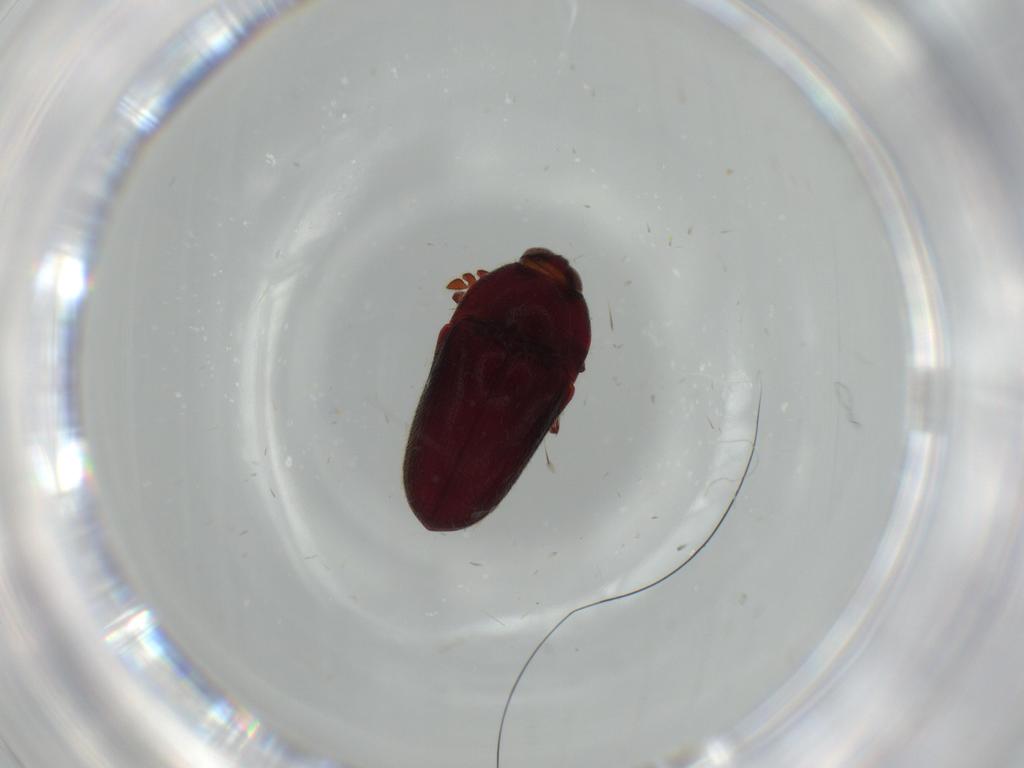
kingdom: Animalia
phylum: Arthropoda
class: Insecta
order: Coleoptera
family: Throscidae
